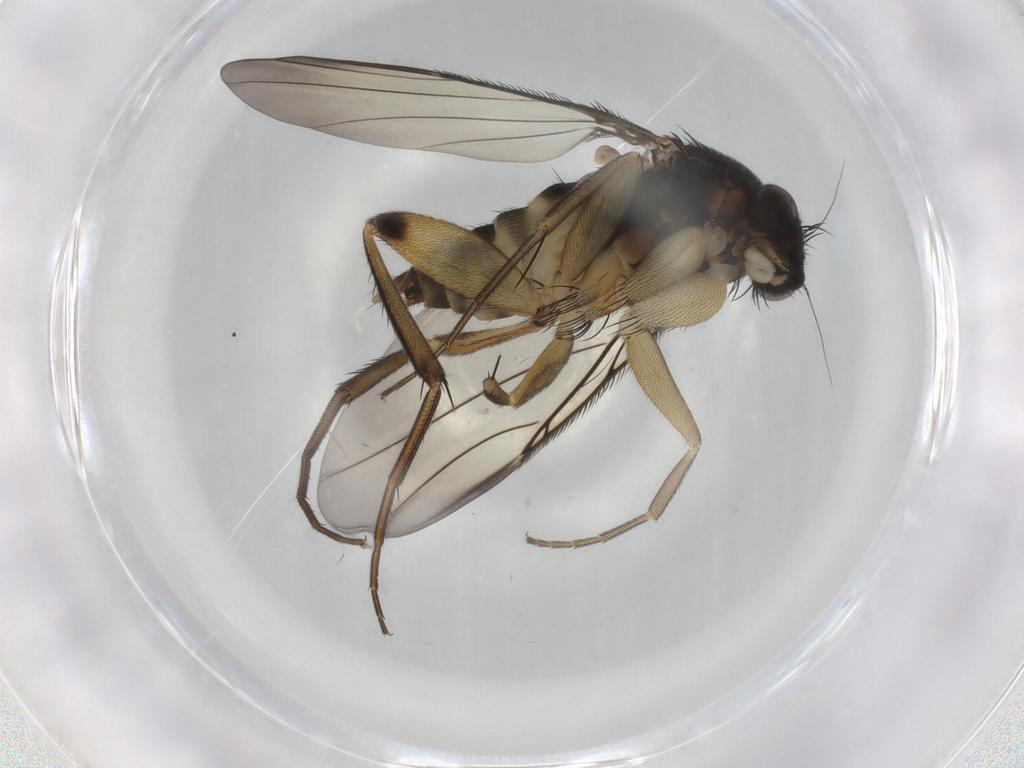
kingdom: Animalia
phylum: Arthropoda
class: Insecta
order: Diptera
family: Phoridae
